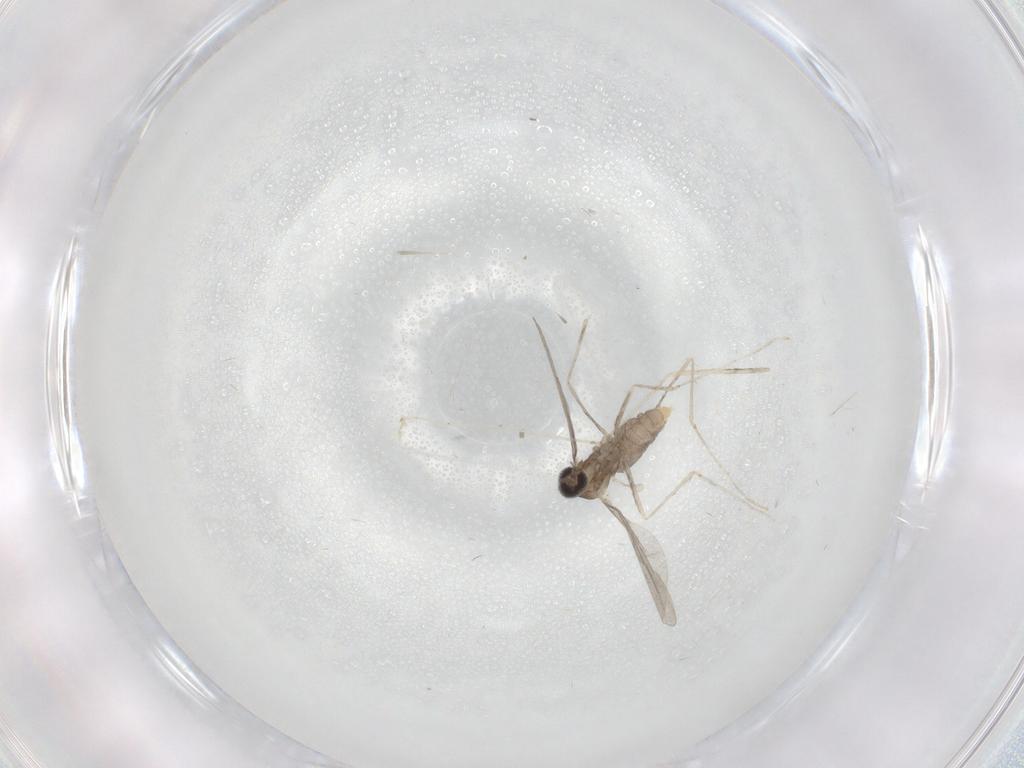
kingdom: Animalia
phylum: Arthropoda
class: Insecta
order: Diptera
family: Cecidomyiidae
